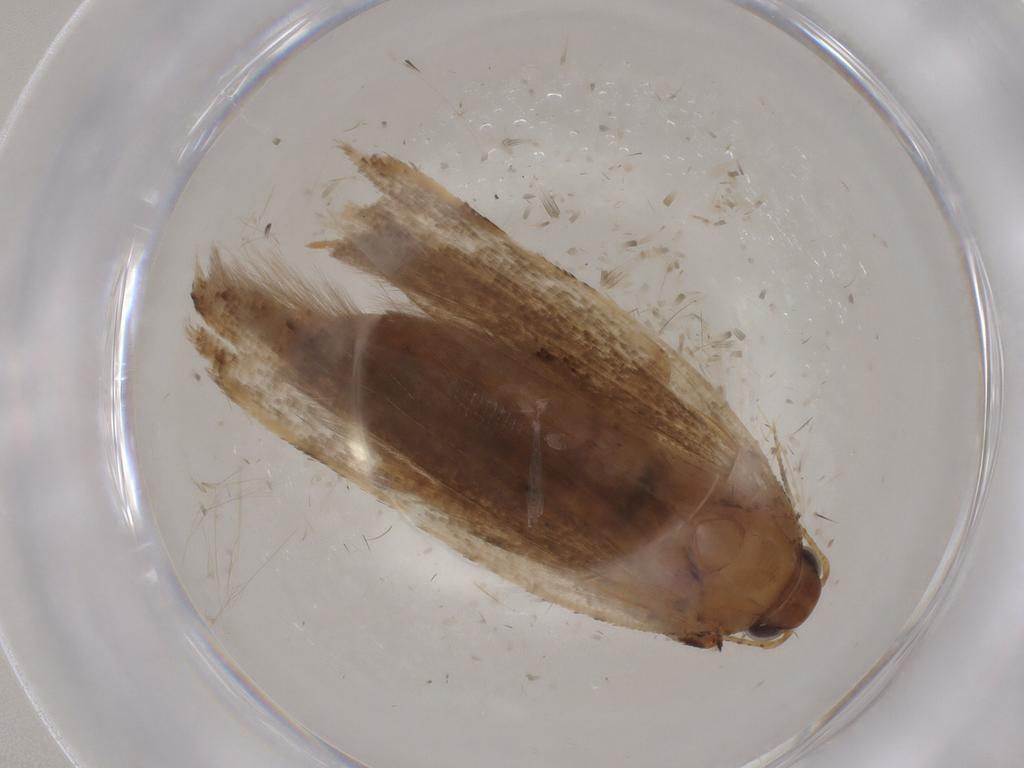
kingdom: Animalia
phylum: Arthropoda
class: Insecta
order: Lepidoptera
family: Gelechiidae
